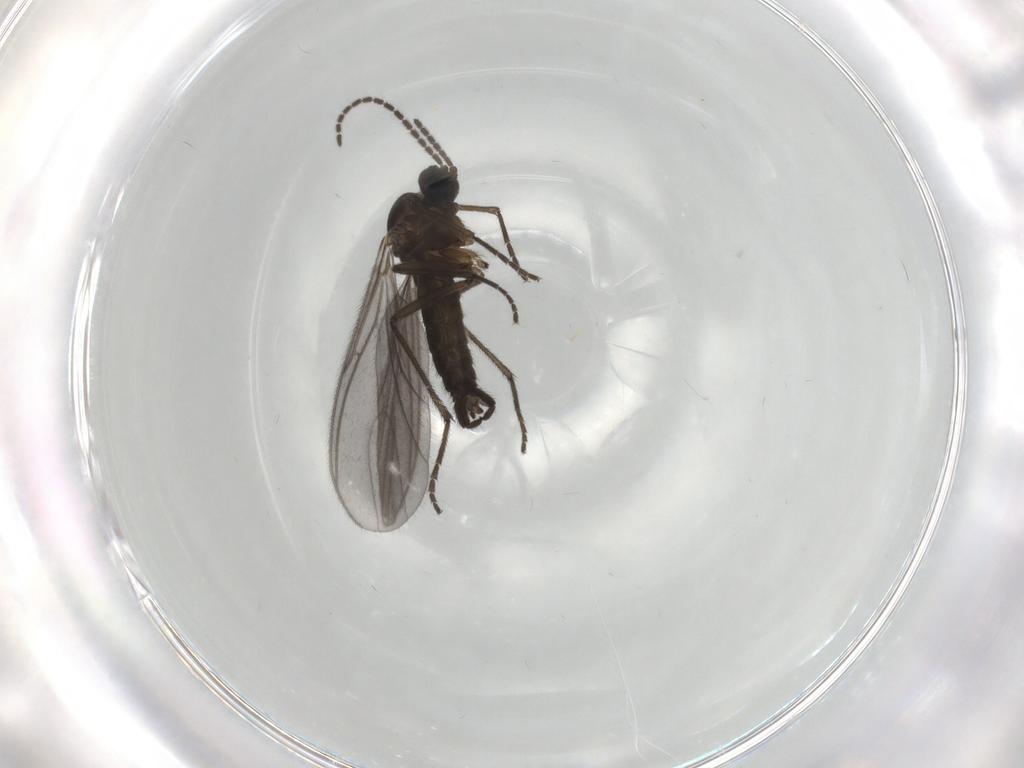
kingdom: Animalia
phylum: Arthropoda
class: Insecta
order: Diptera
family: Sciaridae
